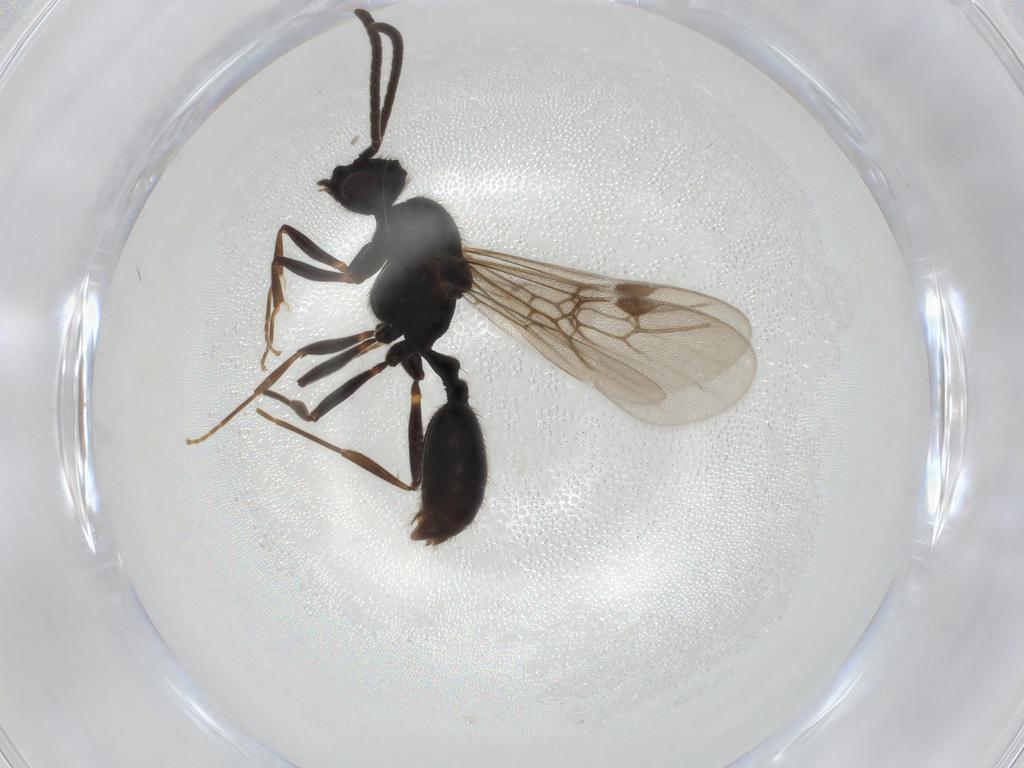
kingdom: Animalia
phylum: Arthropoda
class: Insecta
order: Hymenoptera
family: Formicidae
